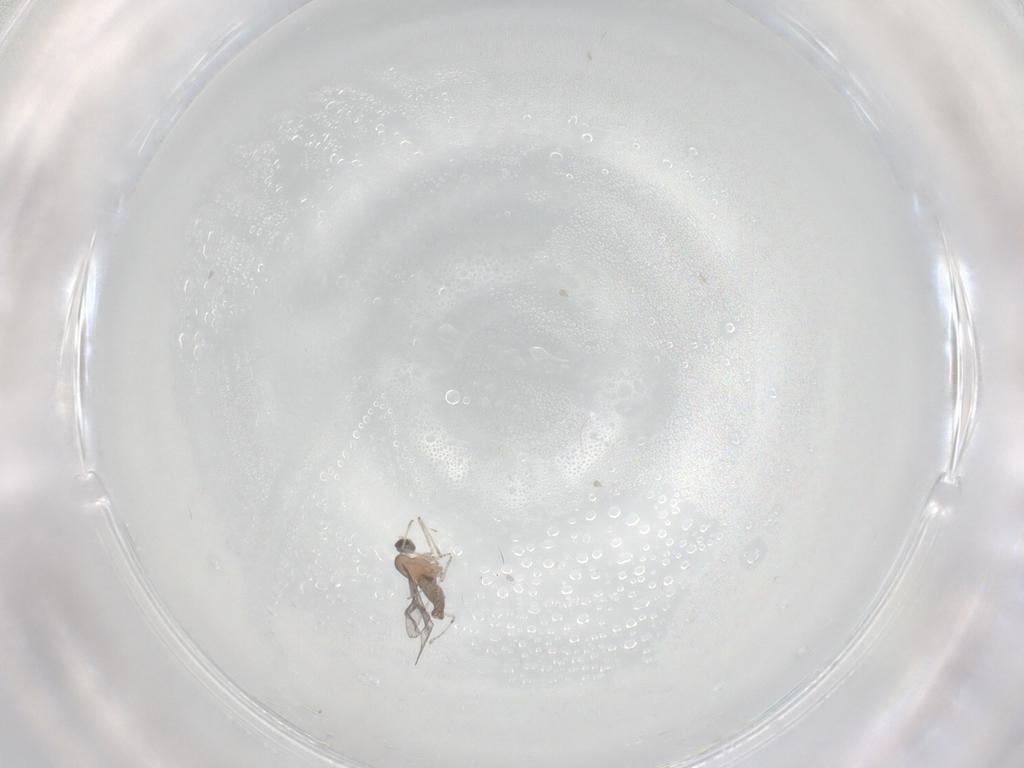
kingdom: Animalia
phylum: Arthropoda
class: Insecta
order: Diptera
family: Cecidomyiidae
